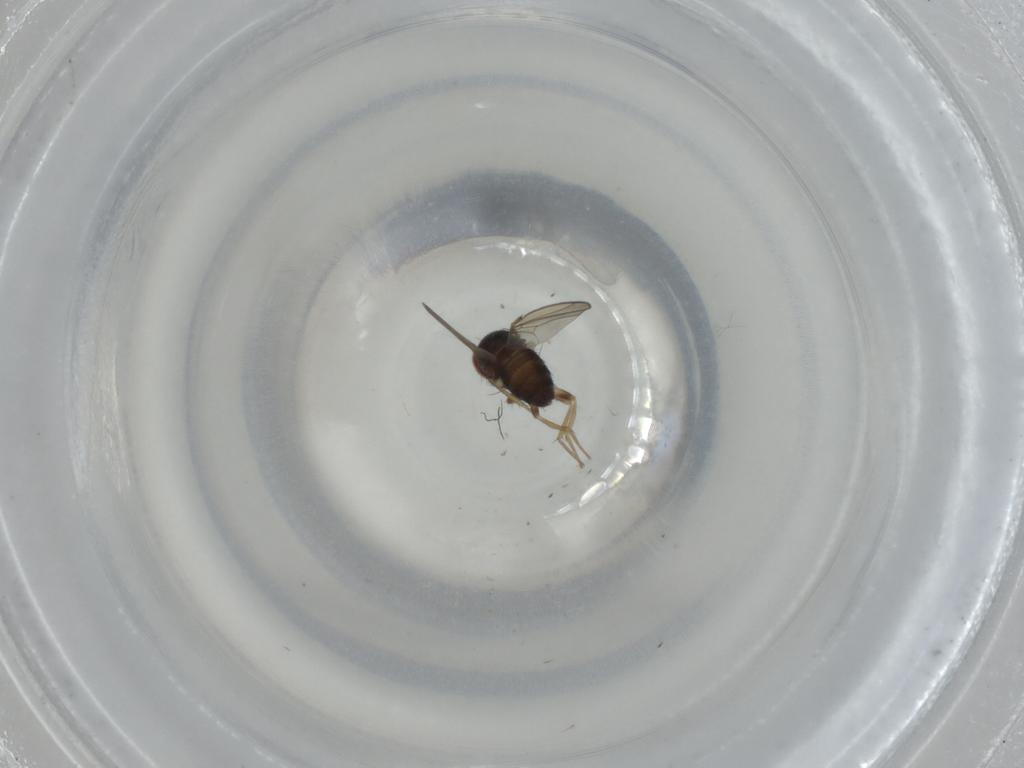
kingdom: Animalia
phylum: Arthropoda
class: Insecta
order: Diptera
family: Drosophilidae
